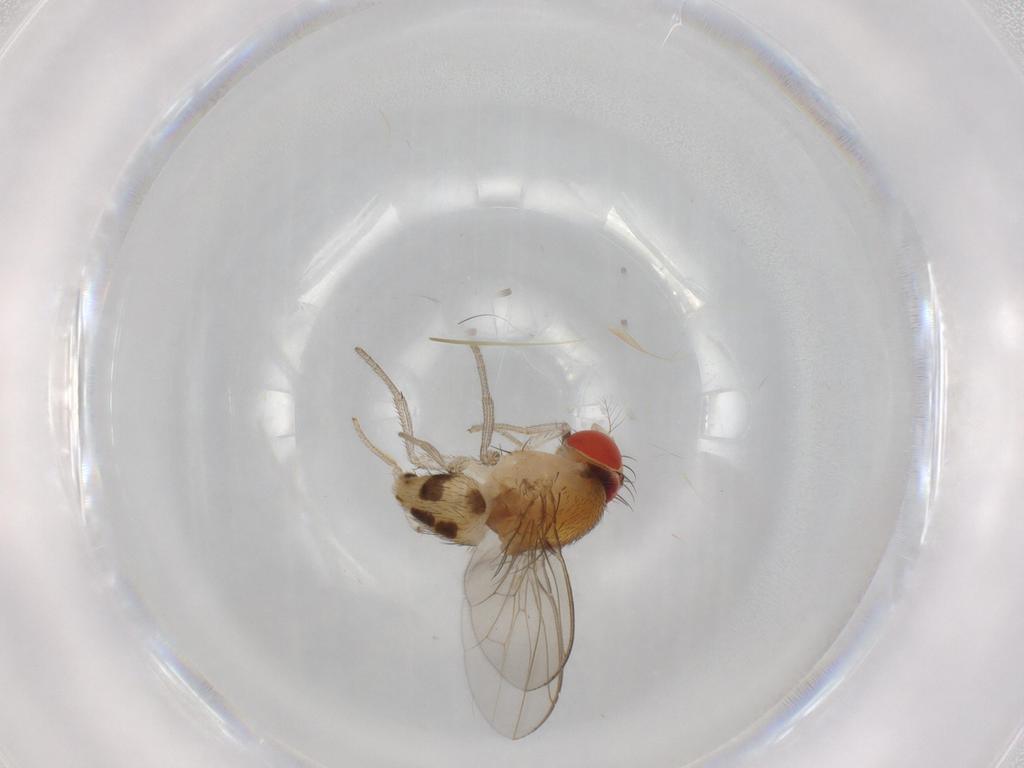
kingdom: Animalia
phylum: Arthropoda
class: Insecta
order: Diptera
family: Drosophilidae
